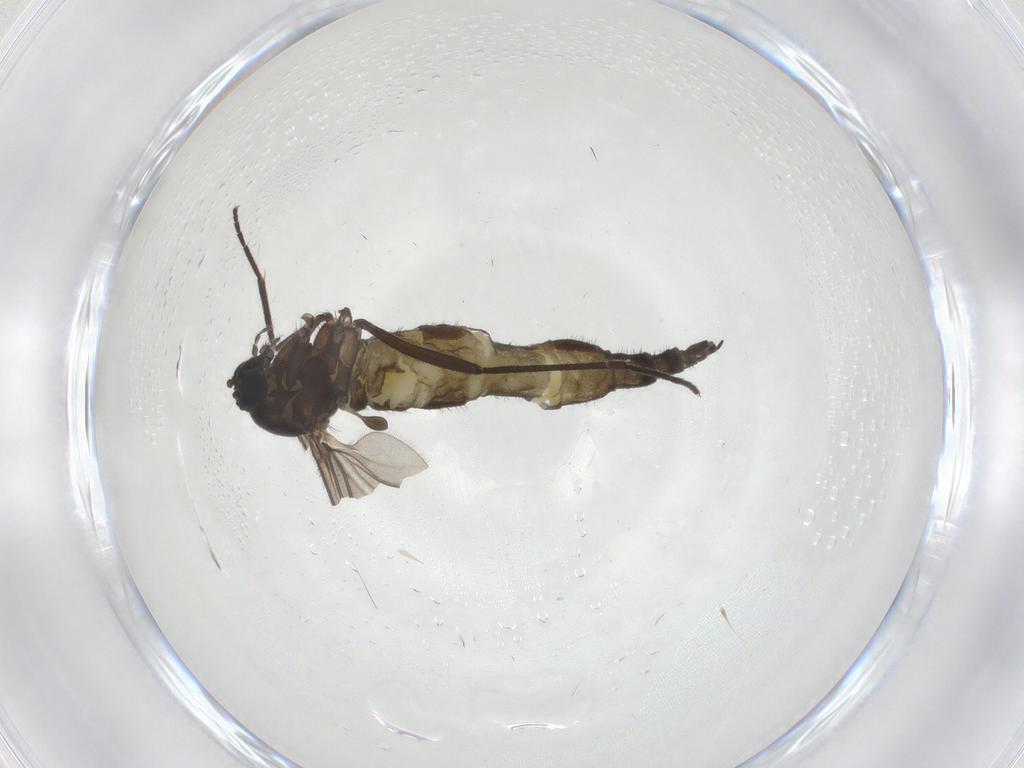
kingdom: Animalia
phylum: Arthropoda
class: Insecta
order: Diptera
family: Sciaridae
